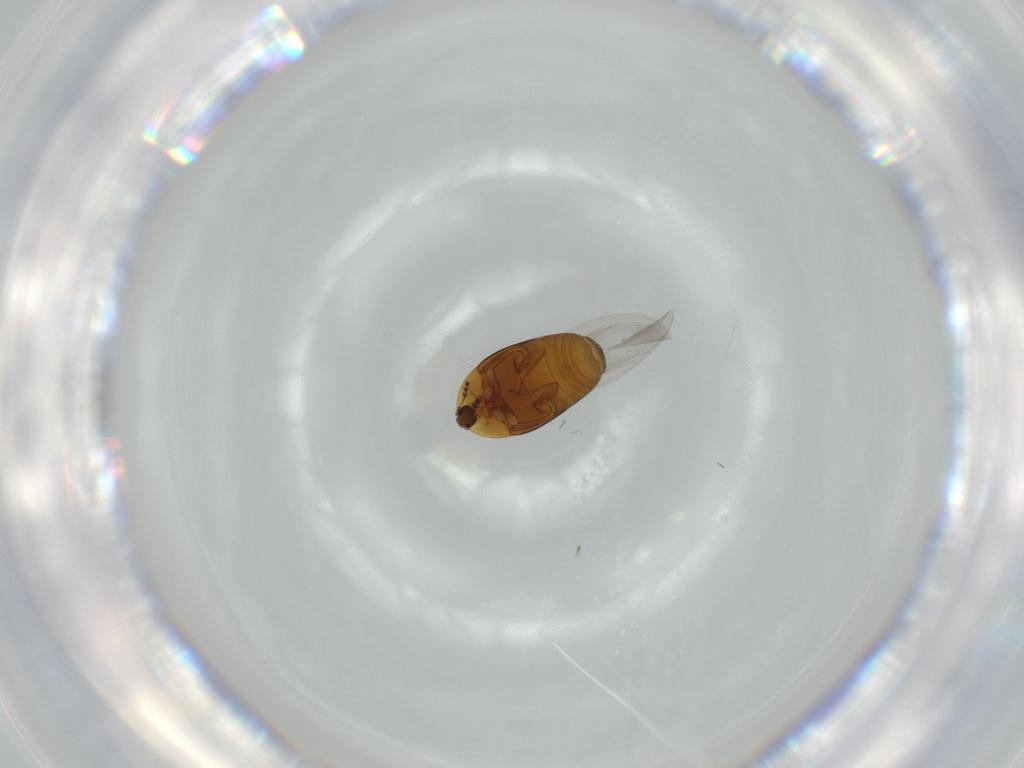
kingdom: Animalia
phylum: Arthropoda
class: Insecta
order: Coleoptera
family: Corylophidae
